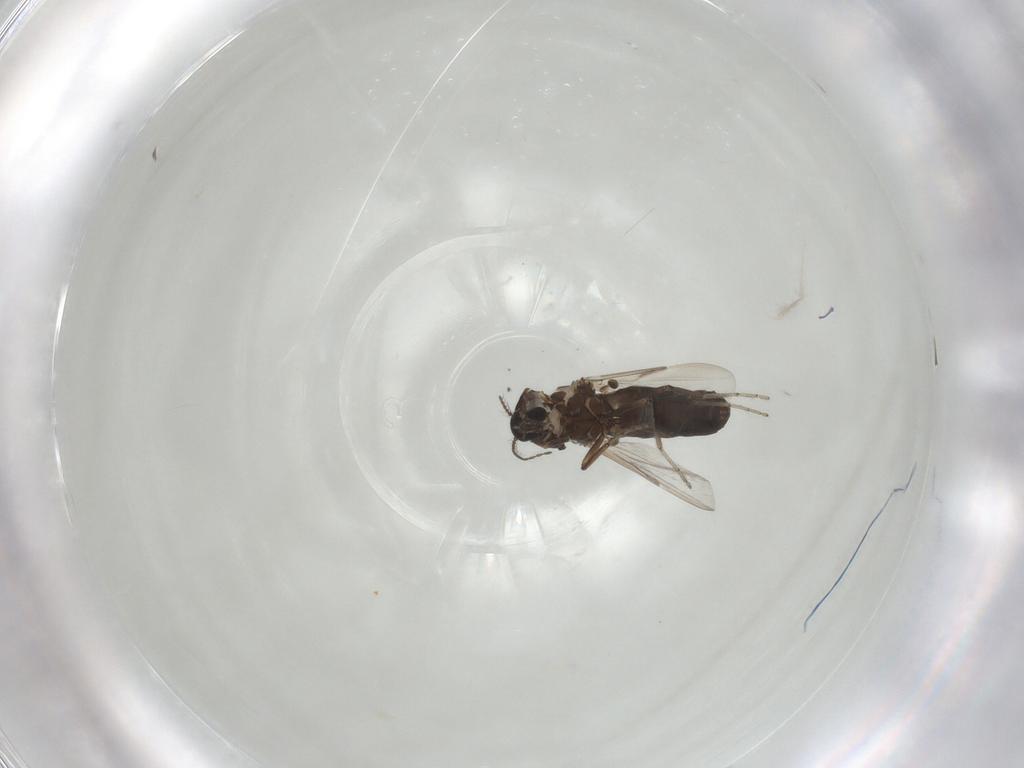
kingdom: Animalia
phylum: Arthropoda
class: Insecta
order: Diptera
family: Ceratopogonidae
